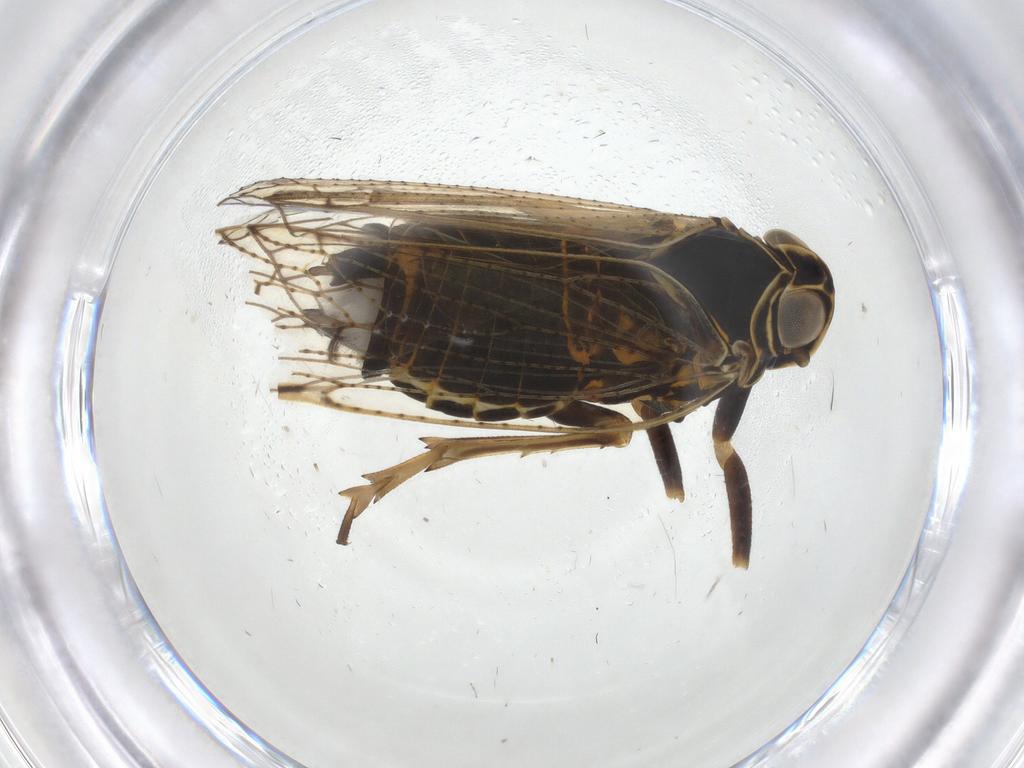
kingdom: Animalia
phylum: Arthropoda
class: Insecta
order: Hemiptera
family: Cixiidae
